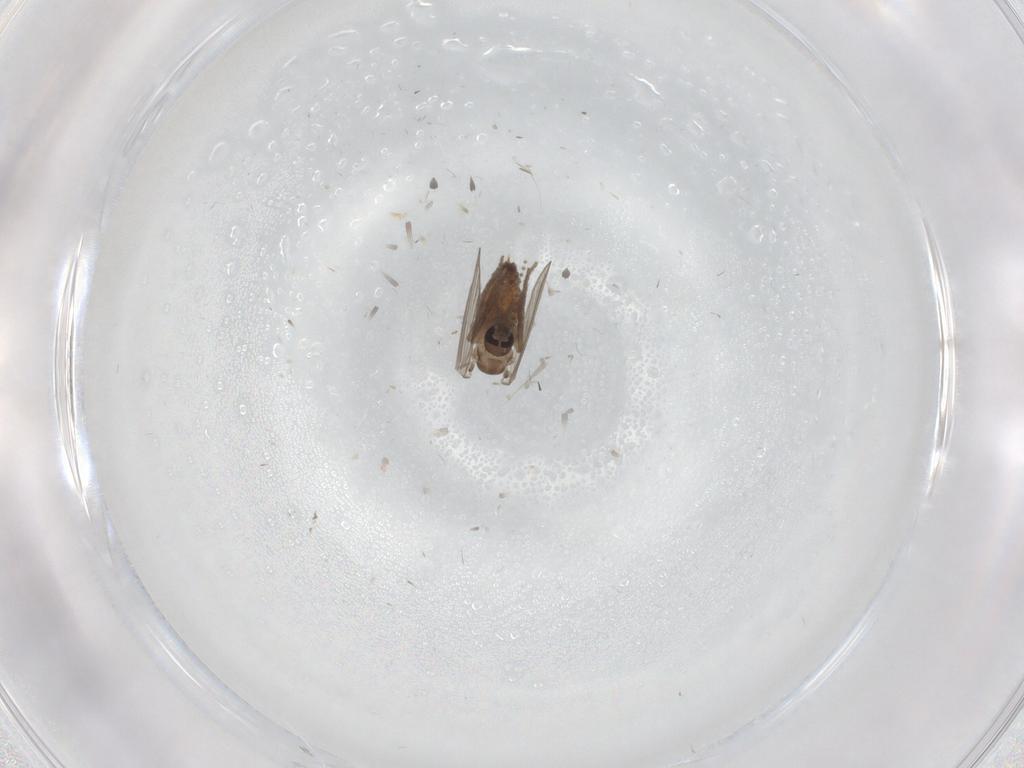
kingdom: Animalia
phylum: Arthropoda
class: Insecta
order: Diptera
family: Psychodidae
